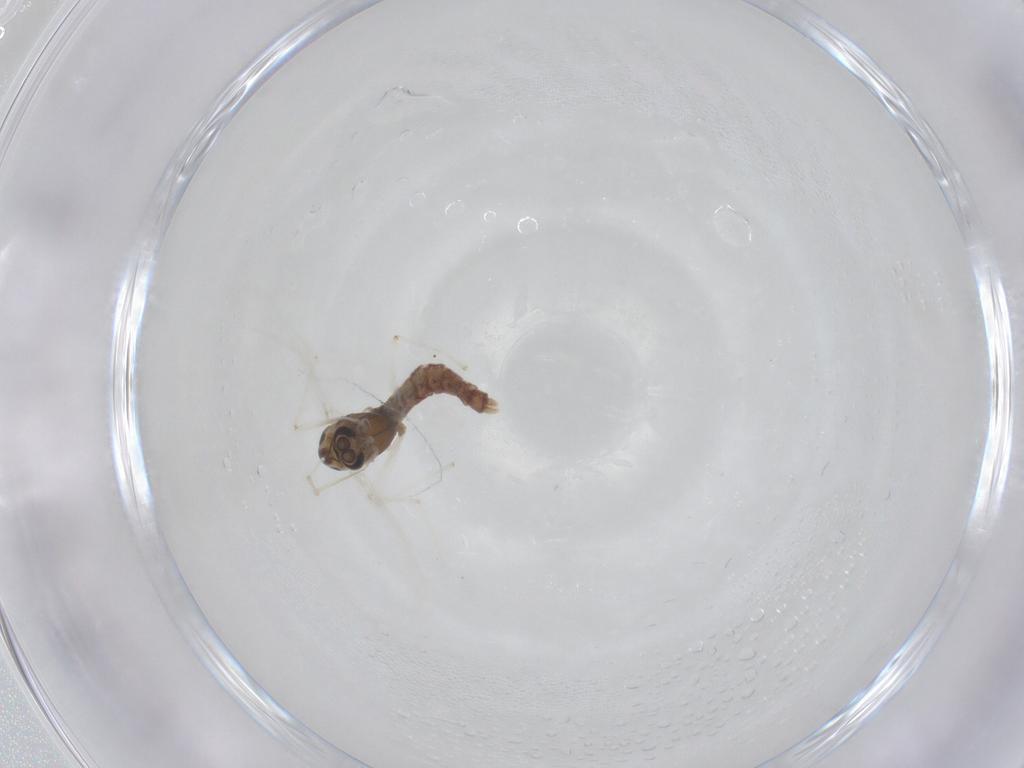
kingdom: Animalia
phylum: Arthropoda
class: Insecta
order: Diptera
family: Chironomidae
